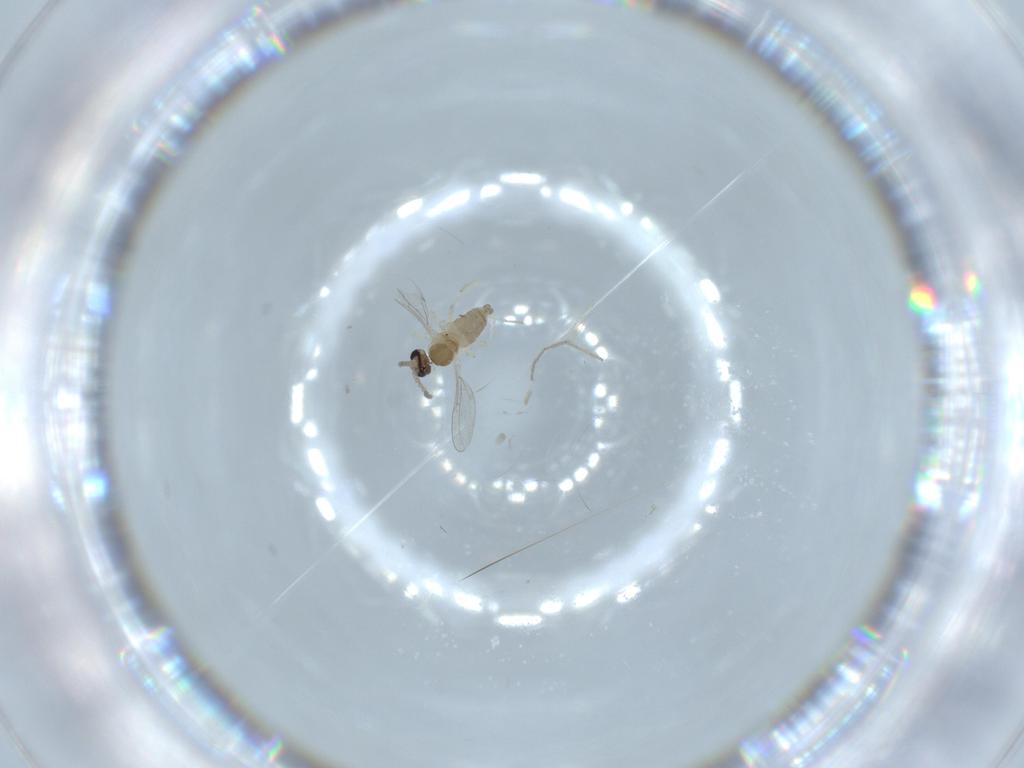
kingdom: Animalia
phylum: Arthropoda
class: Insecta
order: Diptera
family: Cecidomyiidae
